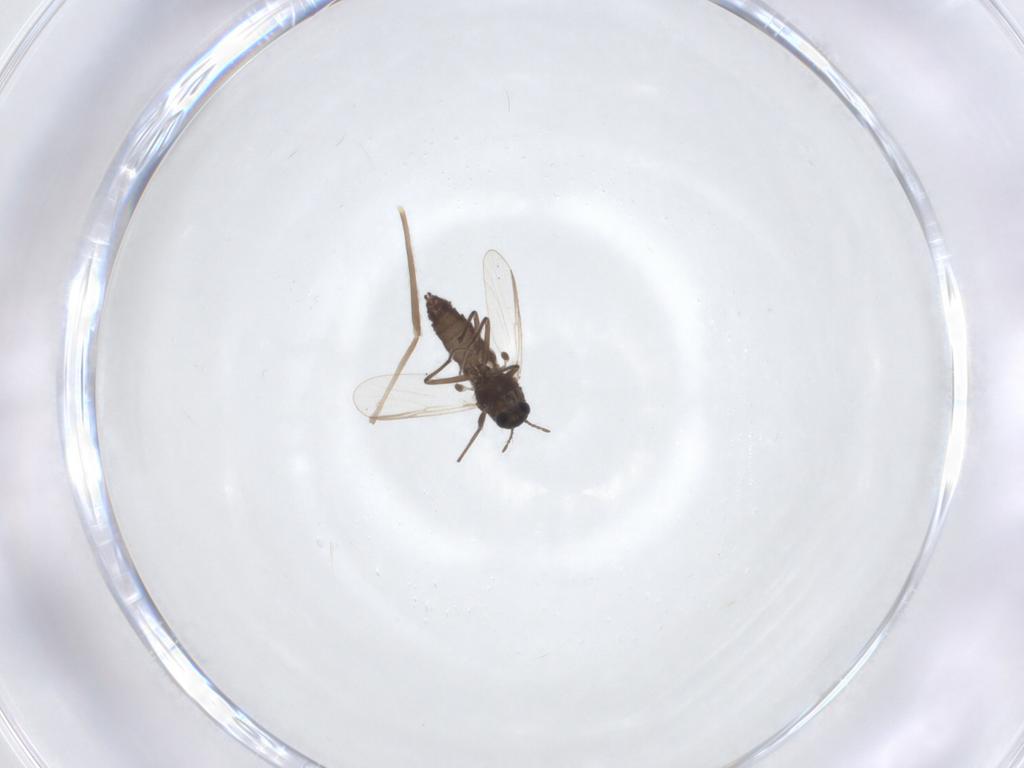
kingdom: Animalia
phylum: Arthropoda
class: Insecta
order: Diptera
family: Chironomidae
